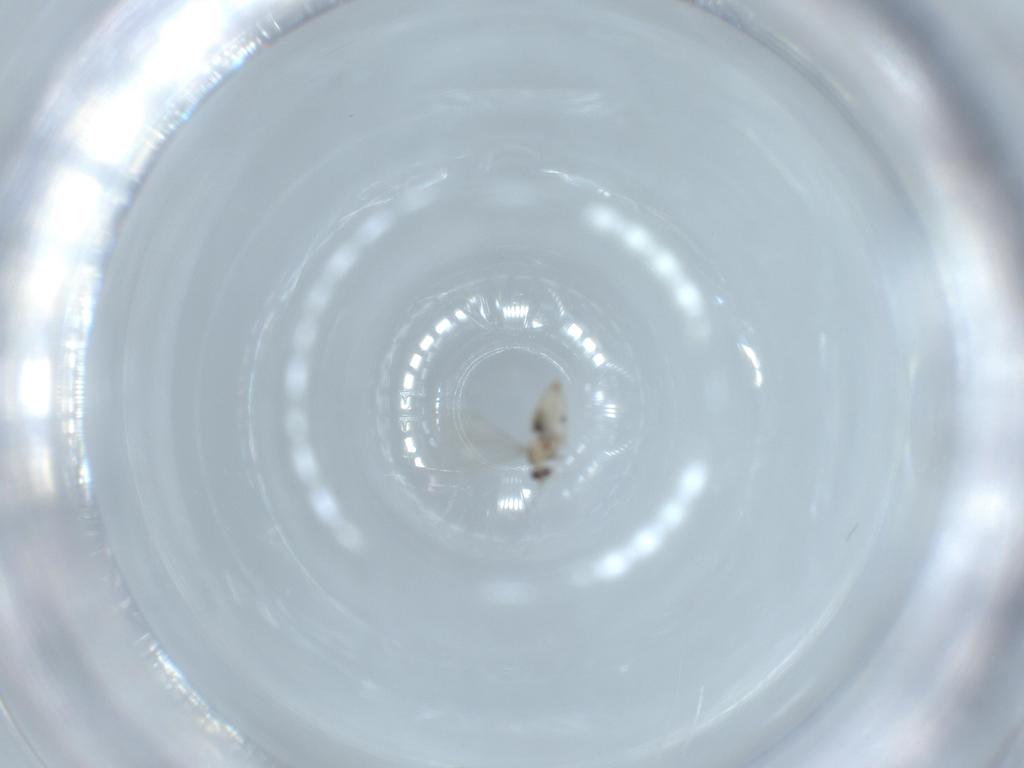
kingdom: Animalia
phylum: Arthropoda
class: Insecta
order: Diptera
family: Cecidomyiidae
